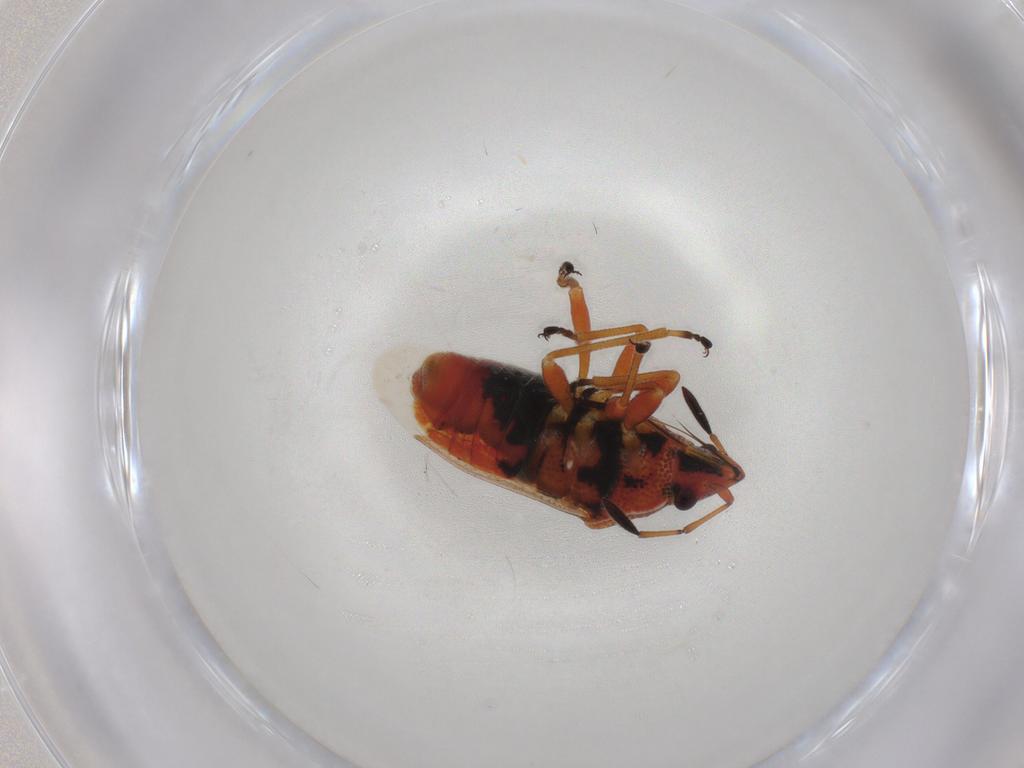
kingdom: Animalia
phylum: Arthropoda
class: Insecta
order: Hemiptera
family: Lygaeidae
